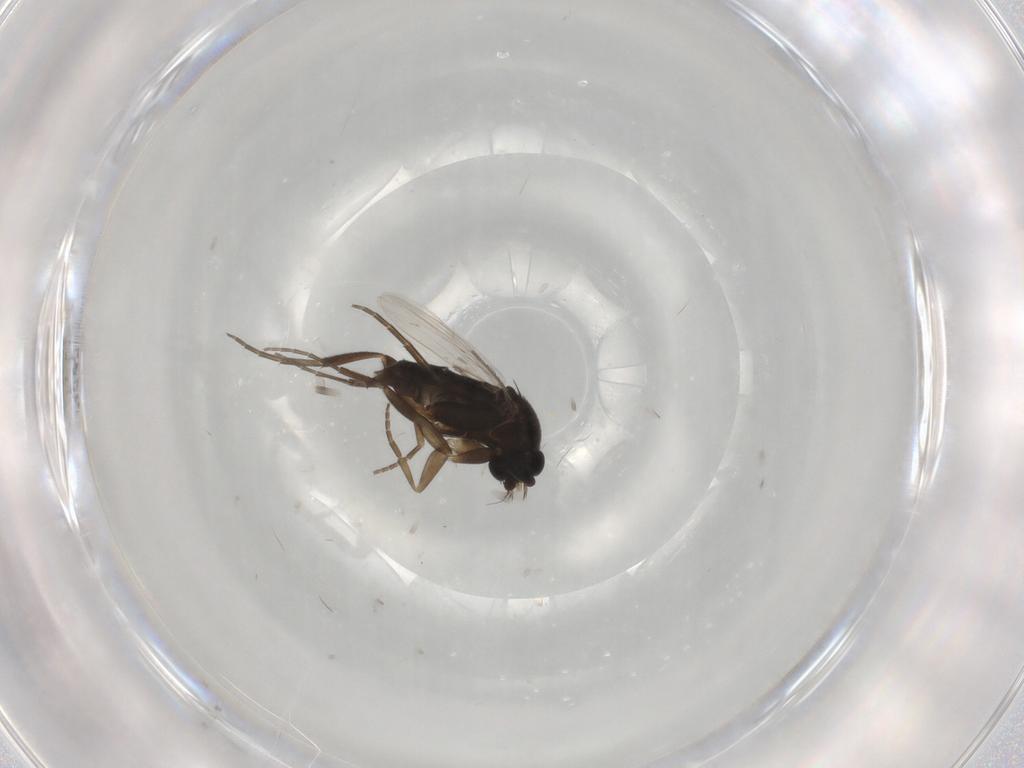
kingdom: Animalia
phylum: Arthropoda
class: Insecta
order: Diptera
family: Phoridae
